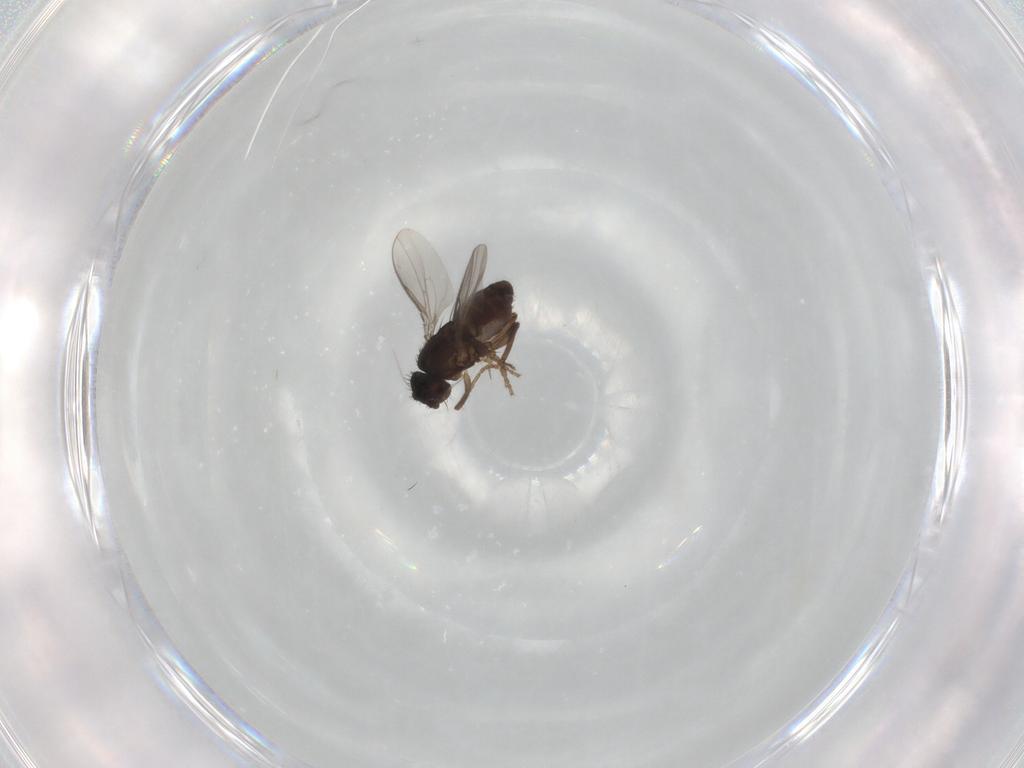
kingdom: Animalia
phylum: Arthropoda
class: Insecta
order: Diptera
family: Sphaeroceridae
